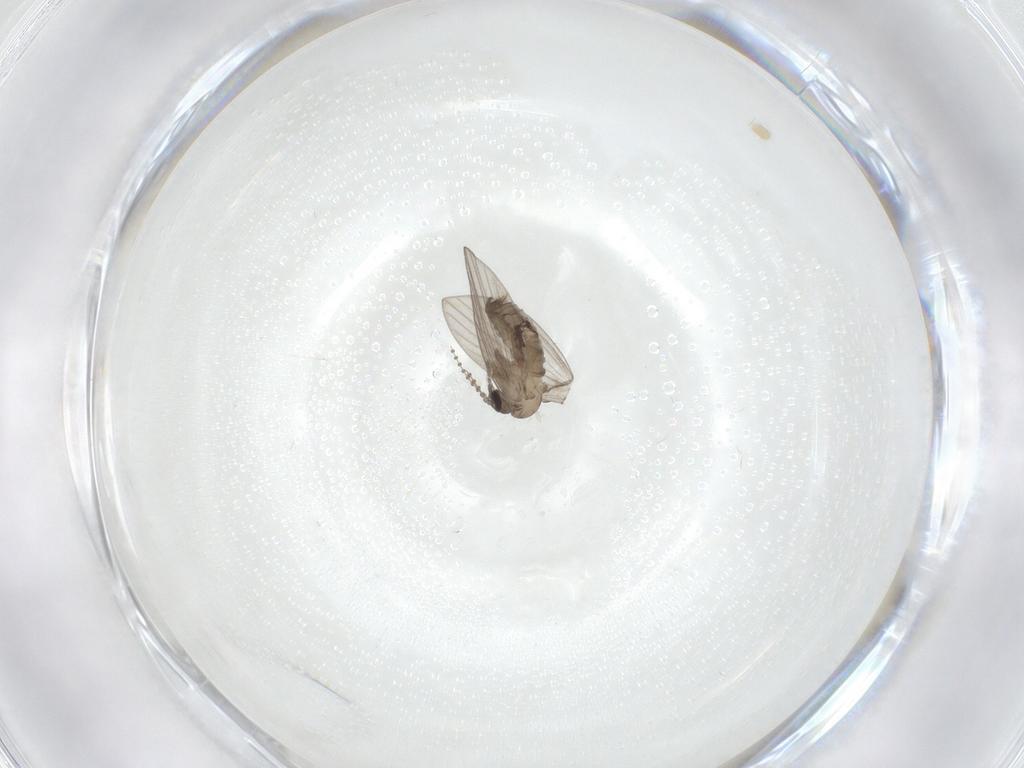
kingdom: Animalia
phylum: Arthropoda
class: Insecta
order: Diptera
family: Psychodidae
